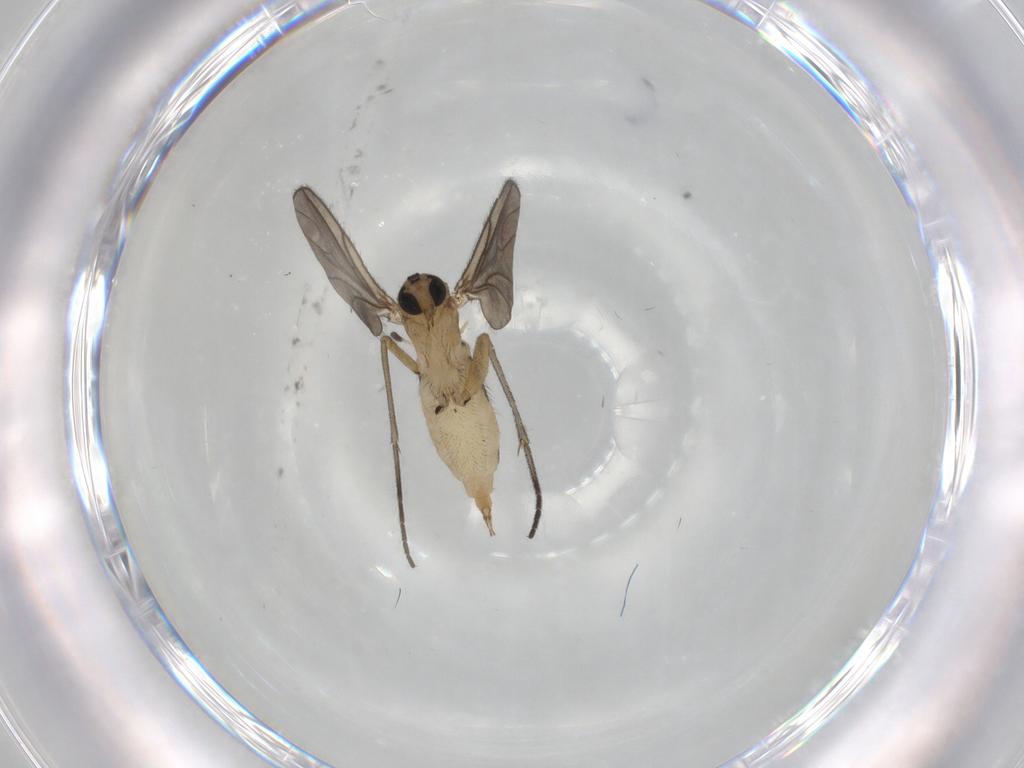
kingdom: Animalia
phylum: Arthropoda
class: Insecta
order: Diptera
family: Sciaridae
